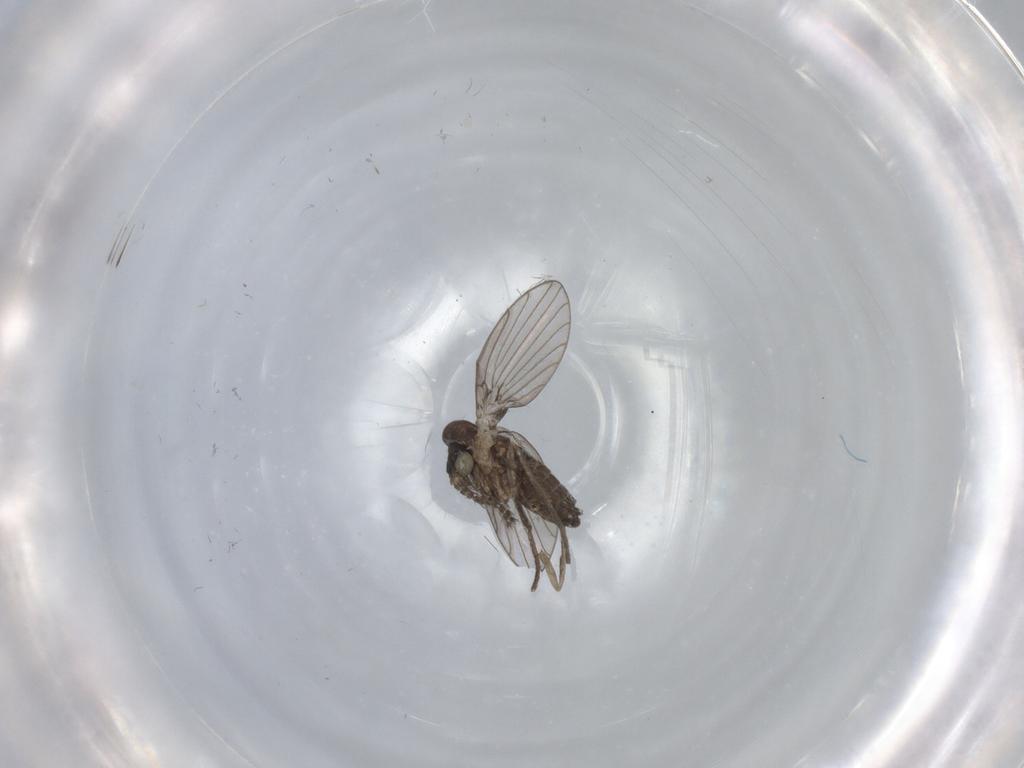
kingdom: Animalia
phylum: Arthropoda
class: Insecta
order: Diptera
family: Cecidomyiidae
